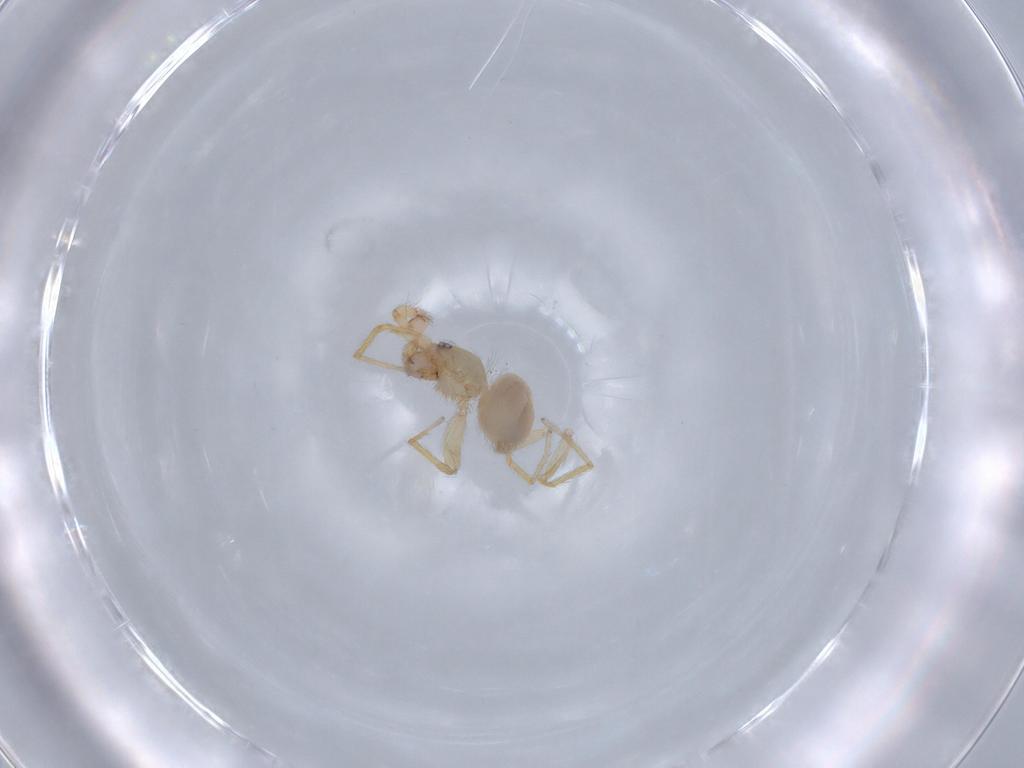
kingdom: Animalia
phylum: Arthropoda
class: Arachnida
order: Araneae
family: Oonopidae
